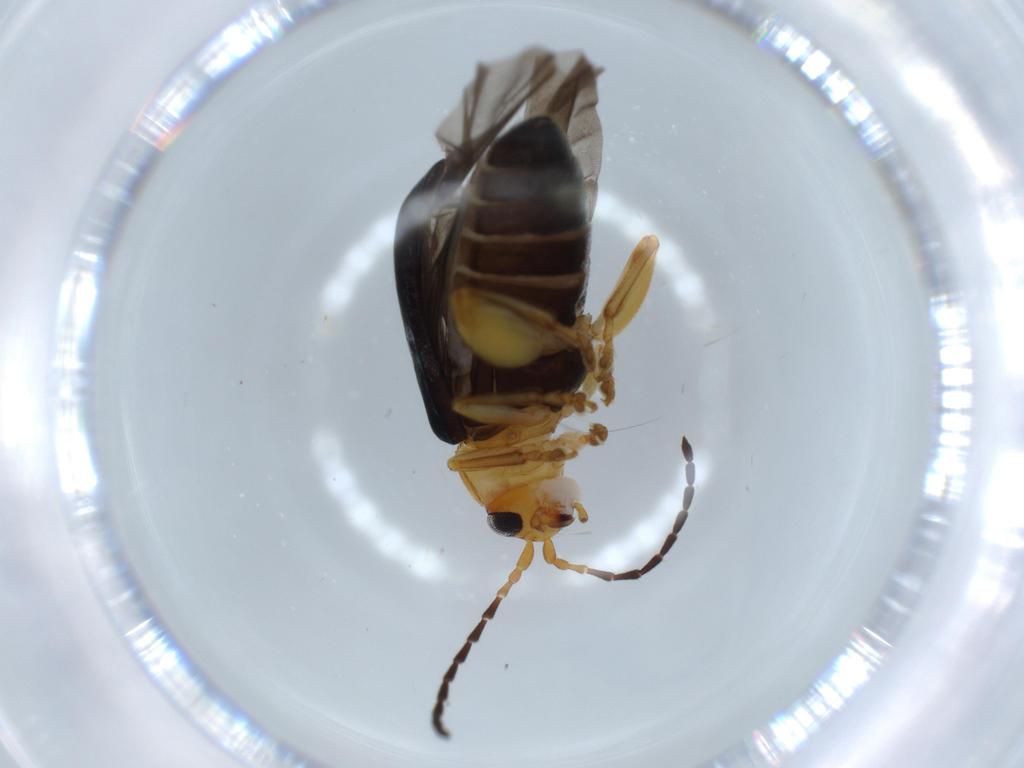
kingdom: Animalia
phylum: Arthropoda
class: Insecta
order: Coleoptera
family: Chrysomelidae
